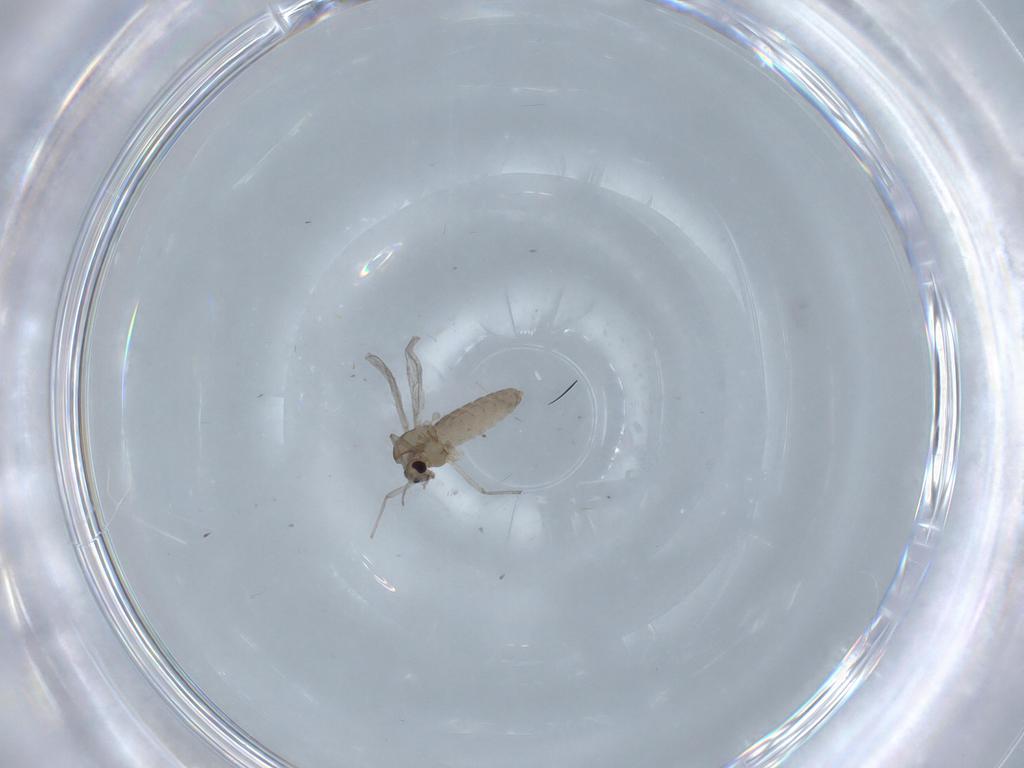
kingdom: Animalia
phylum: Arthropoda
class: Insecta
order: Diptera
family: Chironomidae
